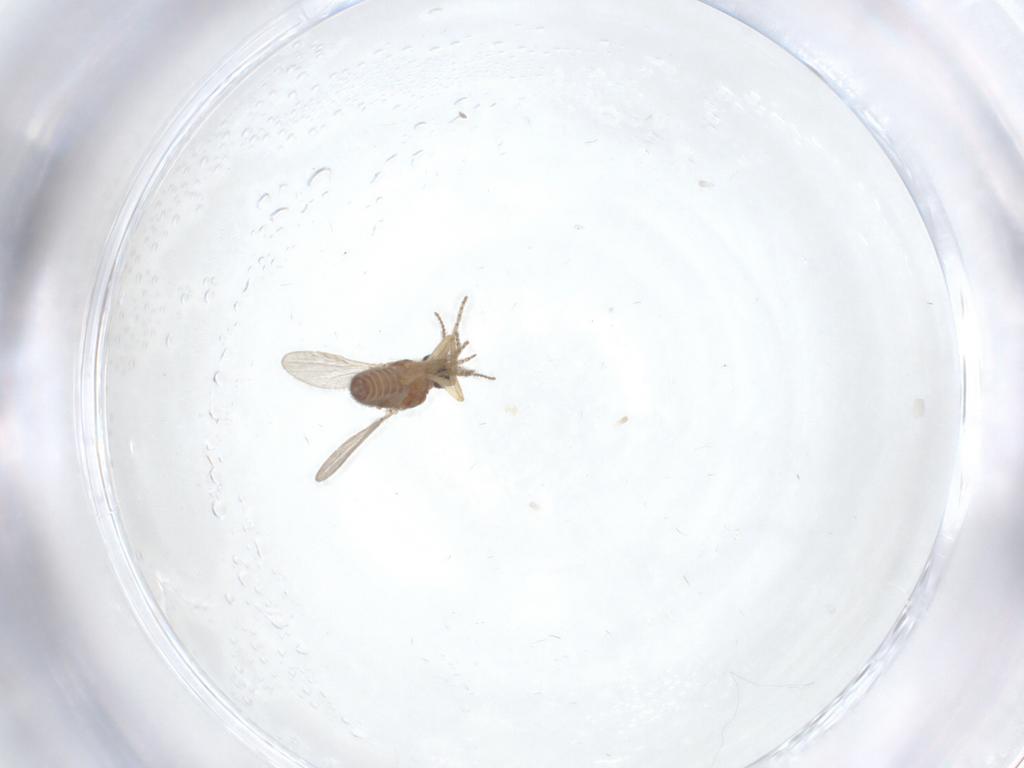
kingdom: Animalia
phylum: Arthropoda
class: Insecta
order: Diptera
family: Ceratopogonidae
